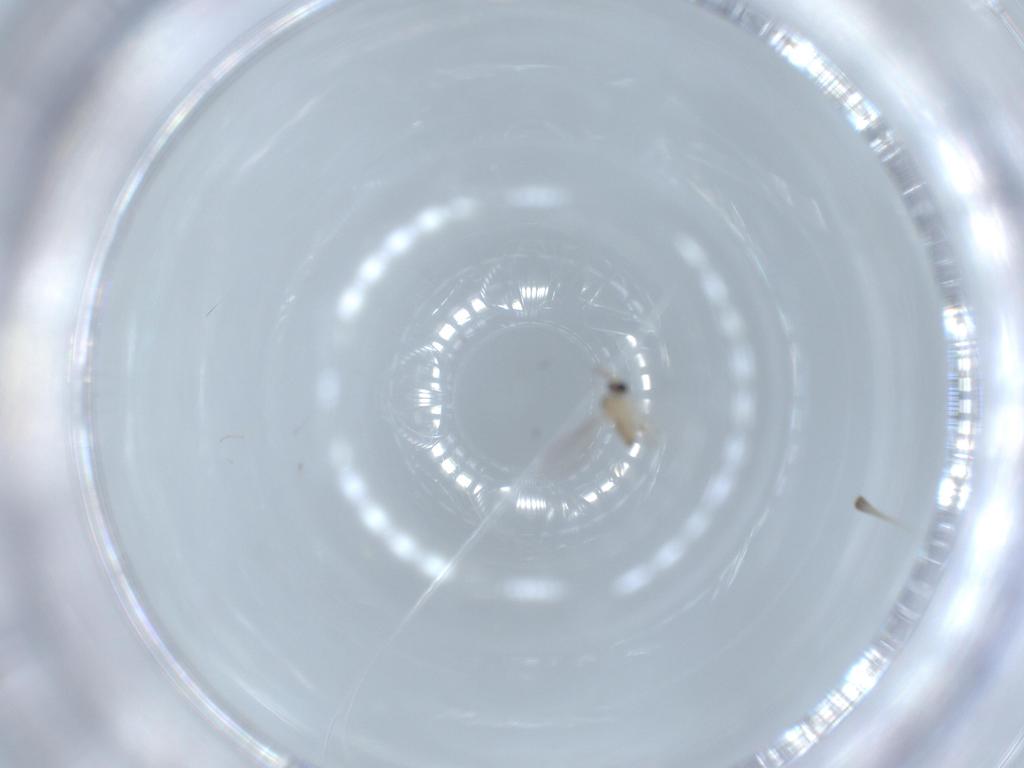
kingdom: Animalia
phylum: Arthropoda
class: Insecta
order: Diptera
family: Cecidomyiidae
